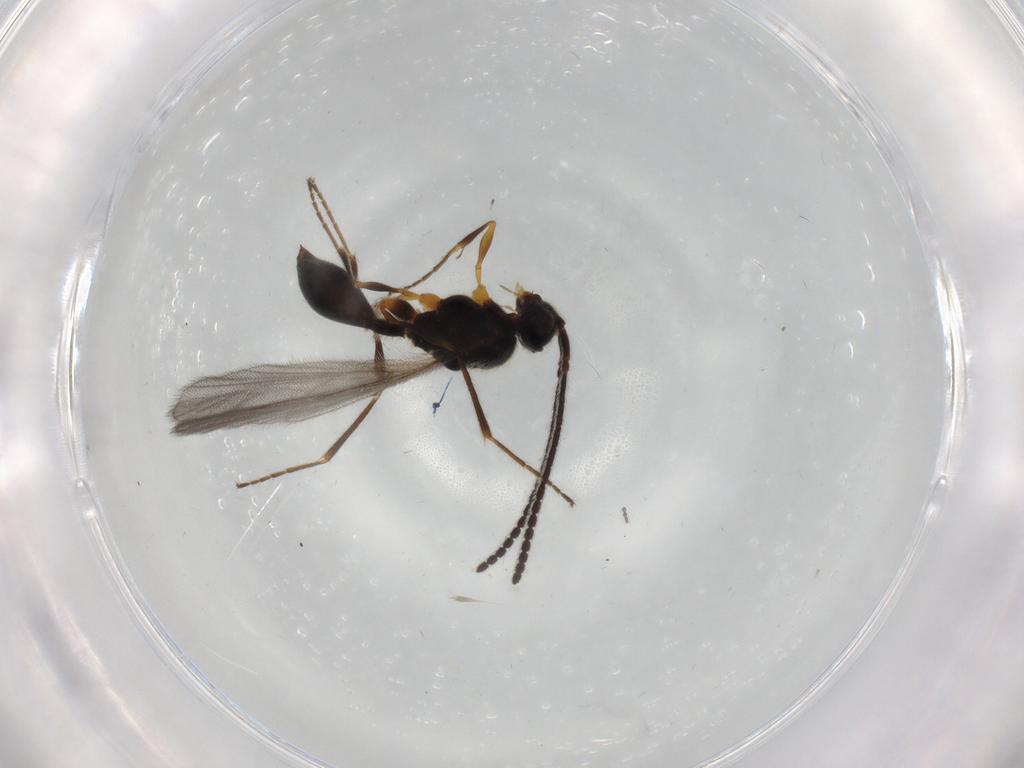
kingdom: Animalia
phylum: Arthropoda
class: Insecta
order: Hymenoptera
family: Diapriidae
